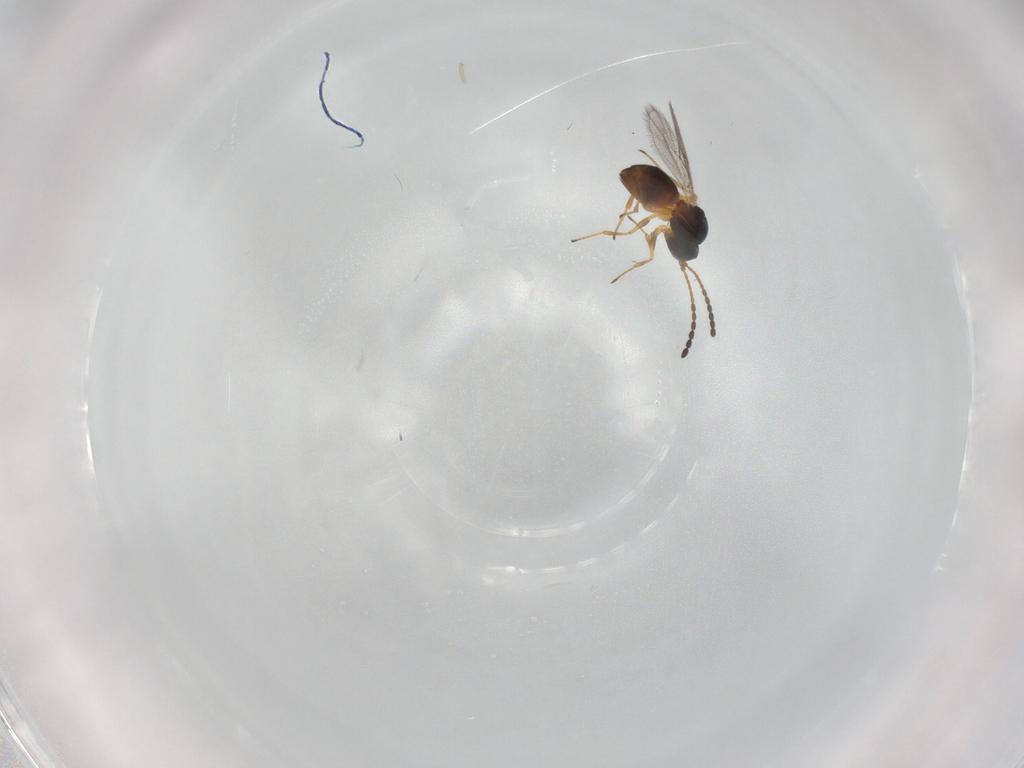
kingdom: Animalia
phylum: Arthropoda
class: Insecta
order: Hymenoptera
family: Figitidae
